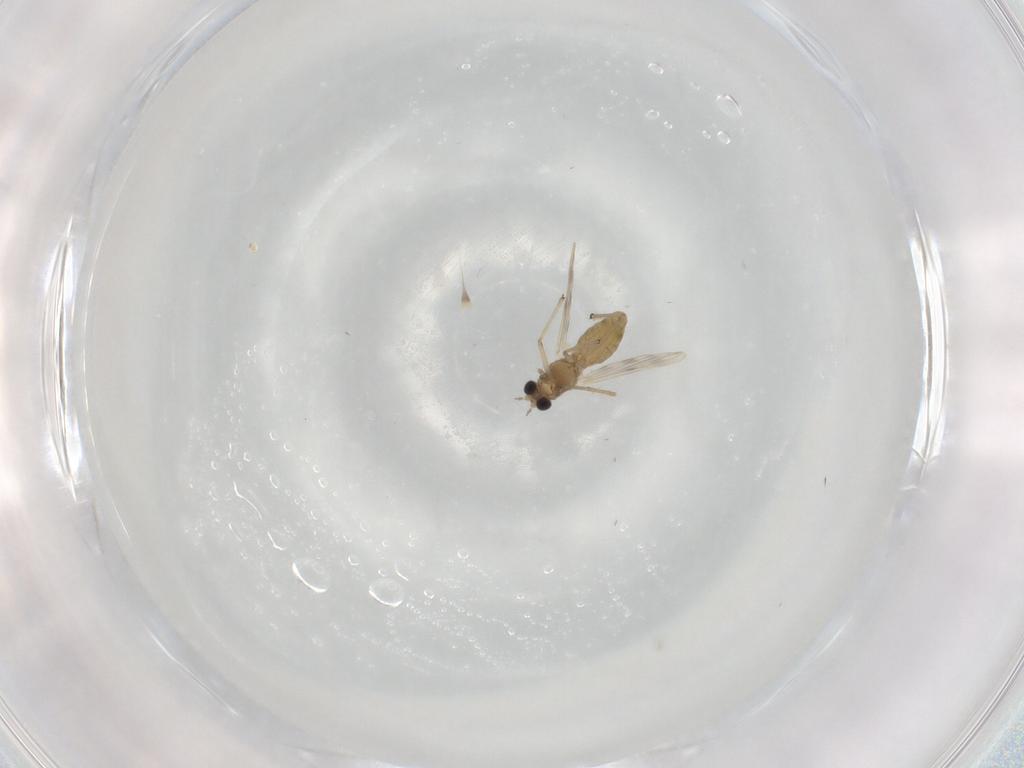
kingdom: Animalia
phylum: Arthropoda
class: Insecta
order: Diptera
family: Chironomidae
